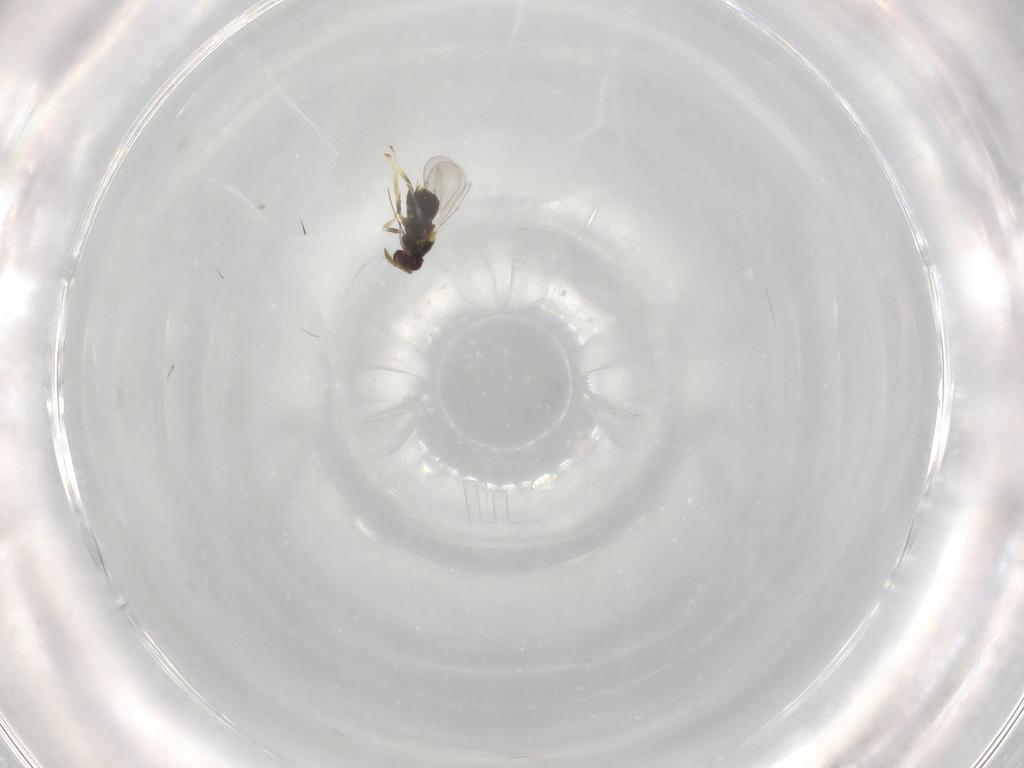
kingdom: Animalia
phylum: Arthropoda
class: Insecta
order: Hymenoptera
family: Aphelinidae
